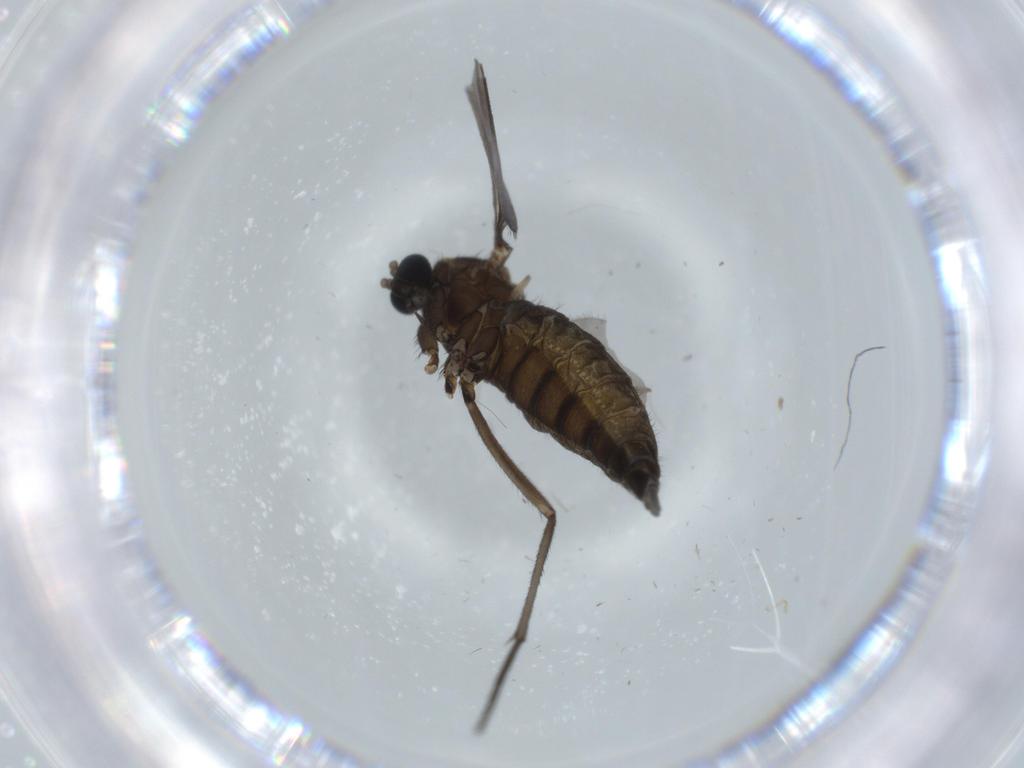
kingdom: Animalia
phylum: Arthropoda
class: Insecta
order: Diptera
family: Sciaridae
